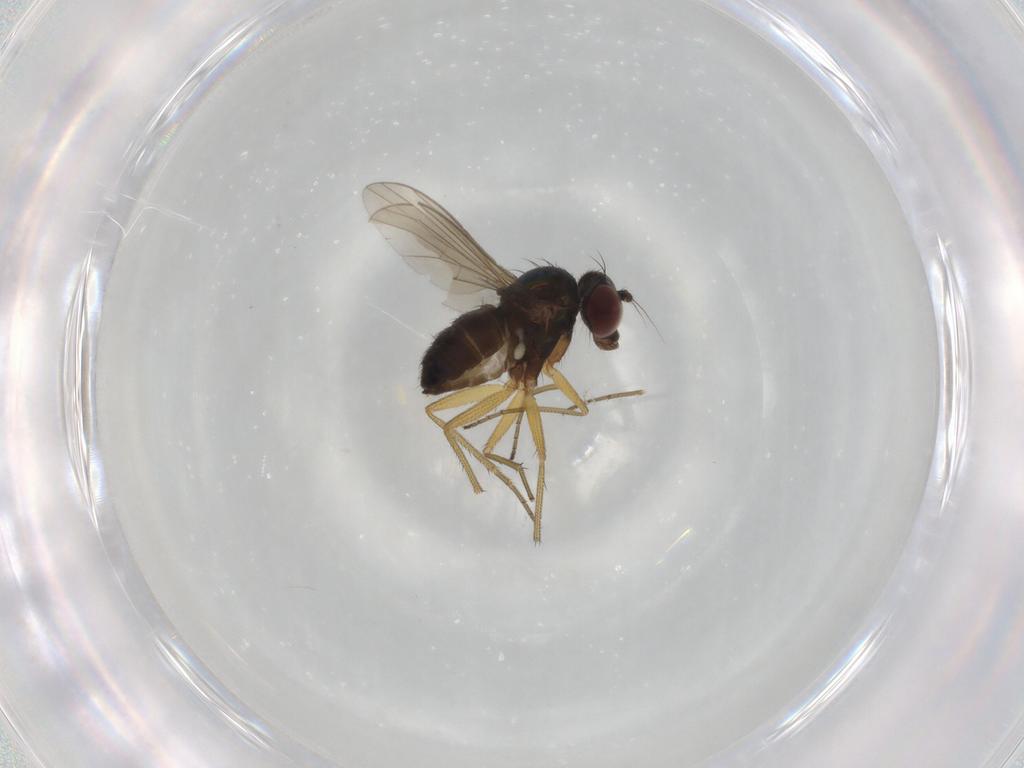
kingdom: Animalia
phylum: Arthropoda
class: Insecta
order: Diptera
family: Dolichopodidae
